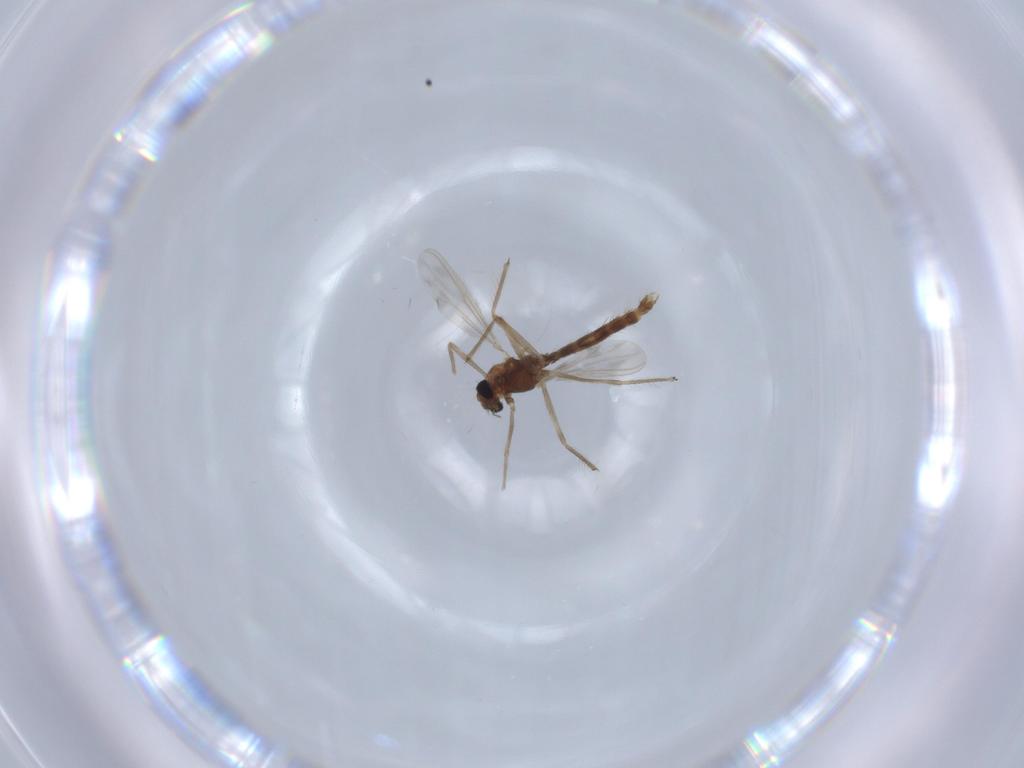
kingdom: Animalia
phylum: Arthropoda
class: Insecta
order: Diptera
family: Chironomidae
